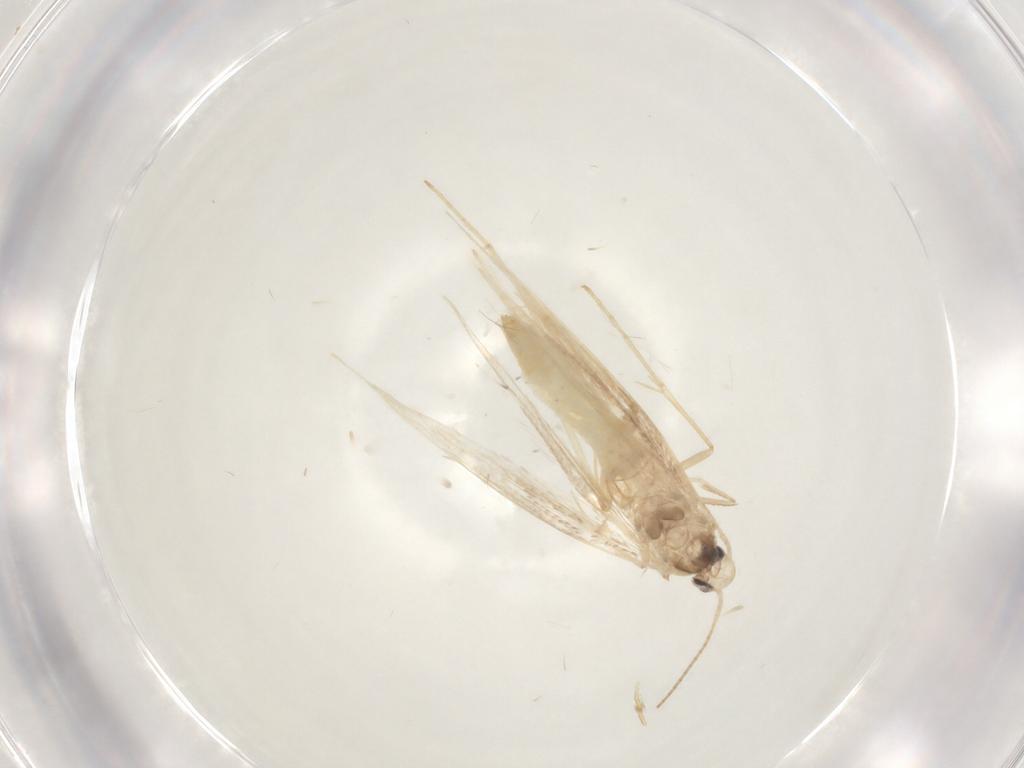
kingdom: Animalia
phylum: Arthropoda
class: Insecta
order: Lepidoptera
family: Gracillariidae
